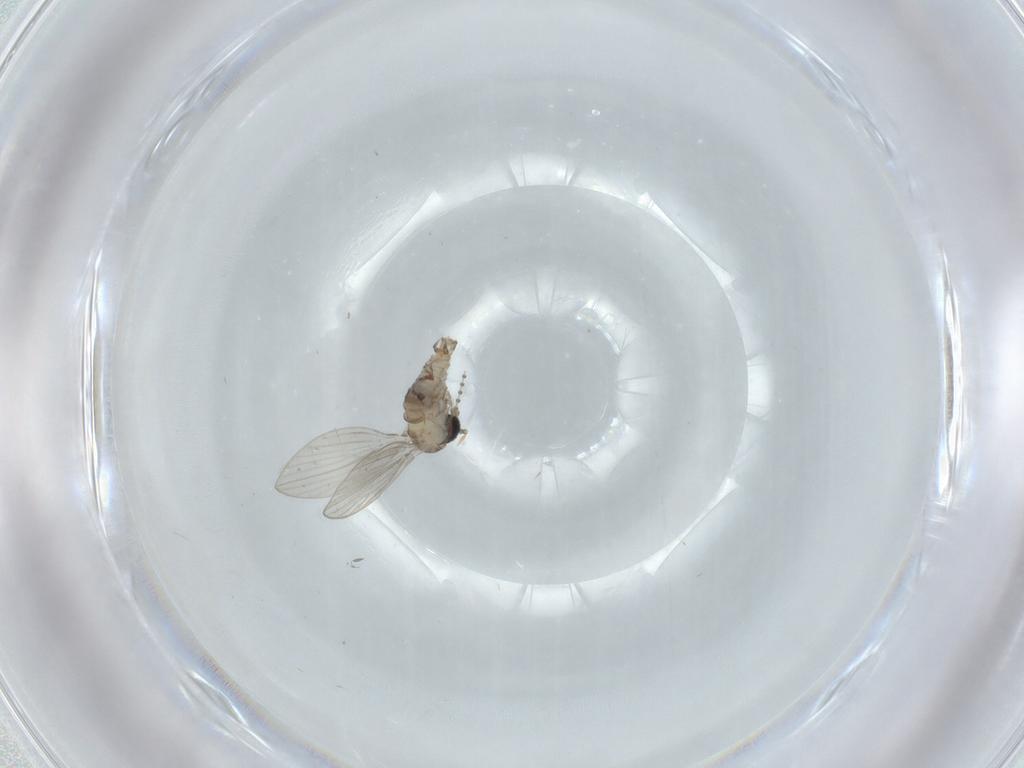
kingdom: Animalia
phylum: Arthropoda
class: Insecta
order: Diptera
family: Psychodidae
